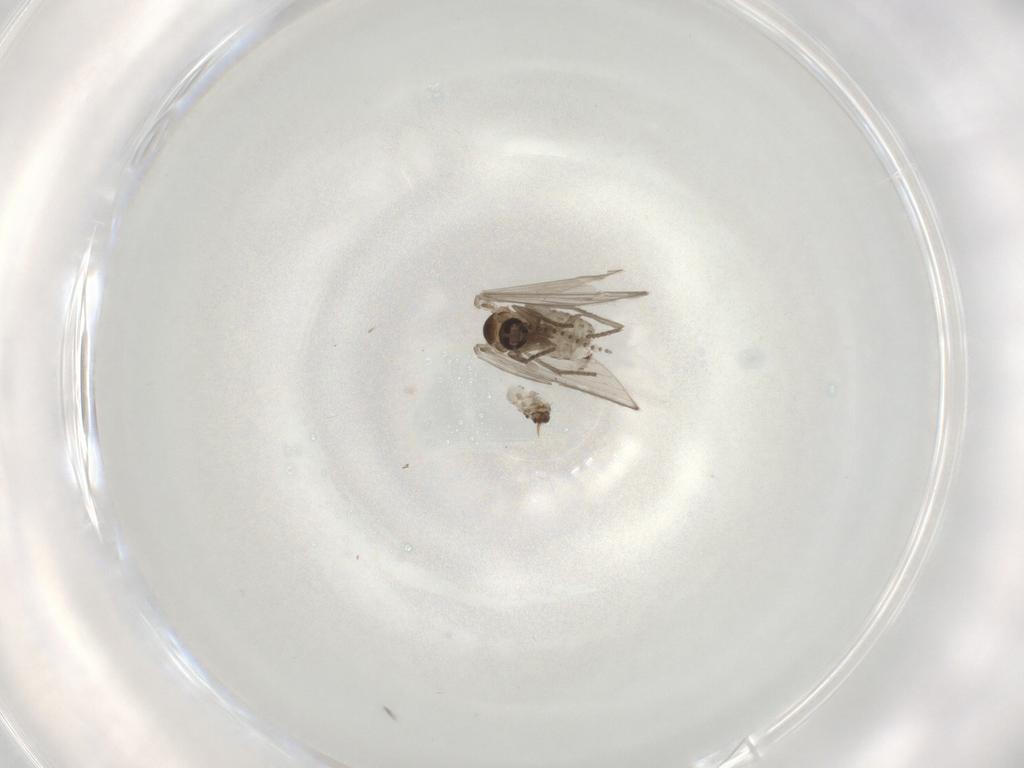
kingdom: Animalia
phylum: Arthropoda
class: Insecta
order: Diptera
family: Psychodidae
